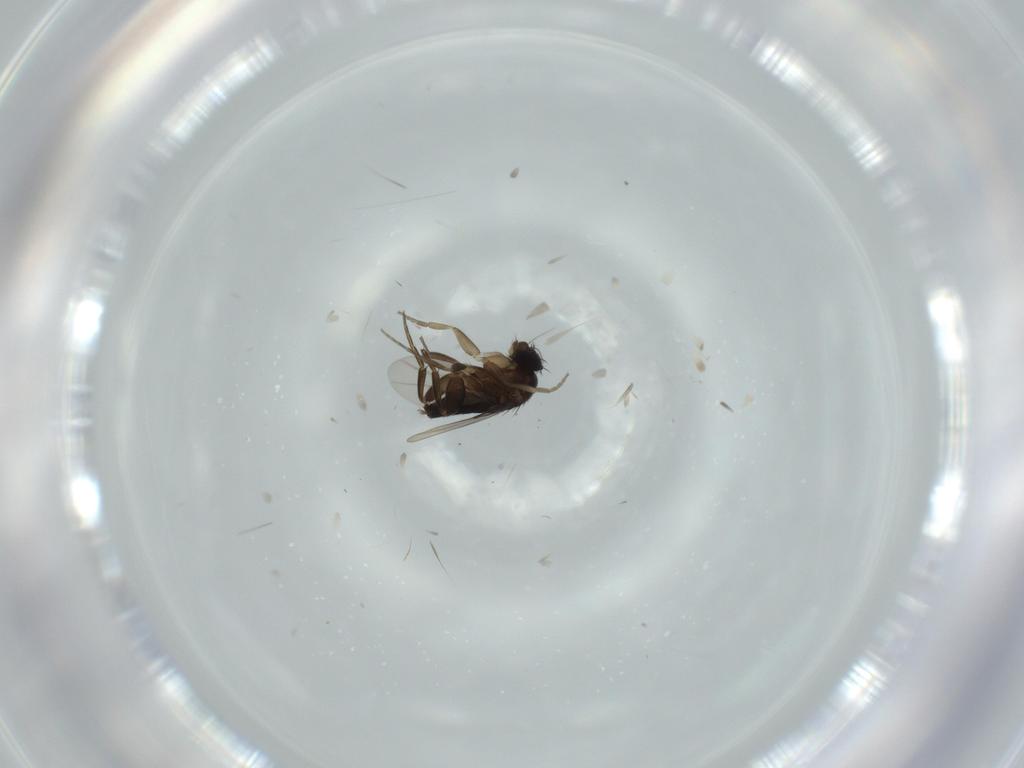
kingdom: Animalia
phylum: Arthropoda
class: Insecta
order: Diptera
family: Phoridae
